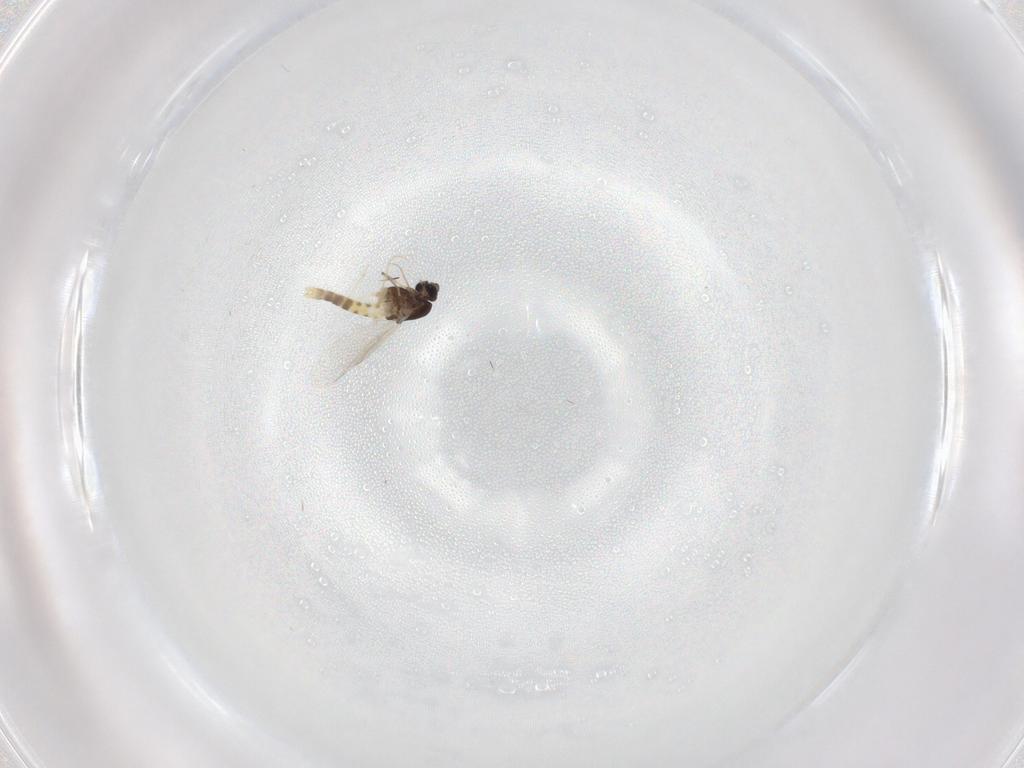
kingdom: Animalia
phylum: Arthropoda
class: Insecta
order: Diptera
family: Chironomidae
